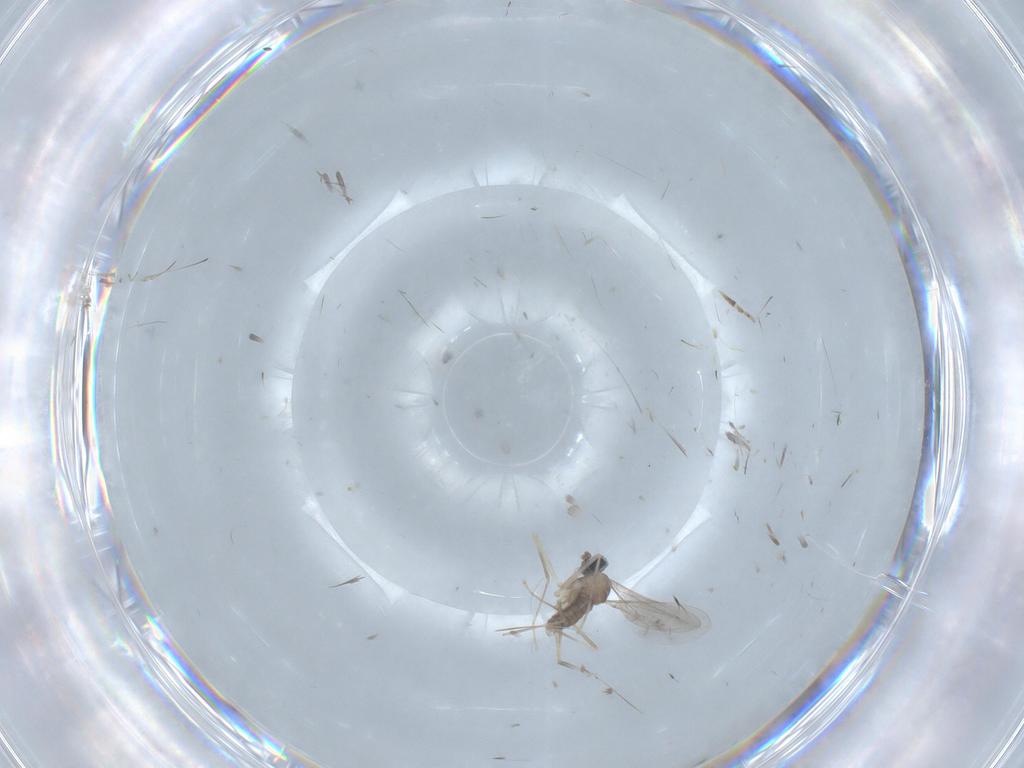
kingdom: Animalia
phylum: Arthropoda
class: Insecta
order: Diptera
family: Cecidomyiidae
